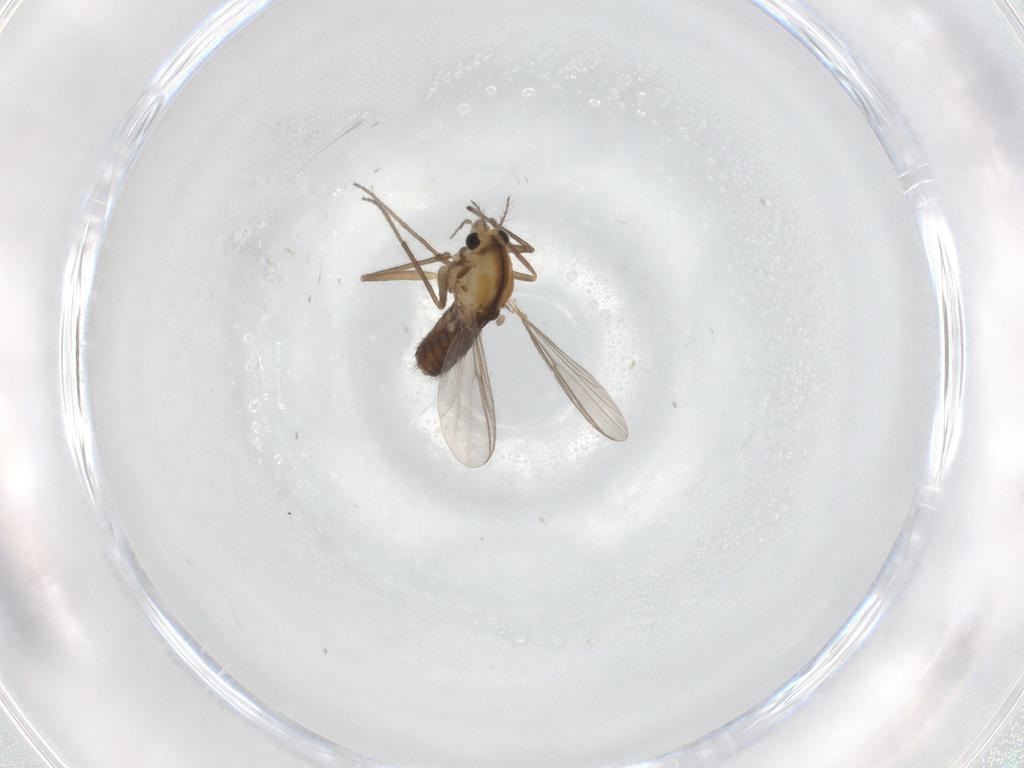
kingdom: Animalia
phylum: Arthropoda
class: Insecta
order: Diptera
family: Chironomidae
